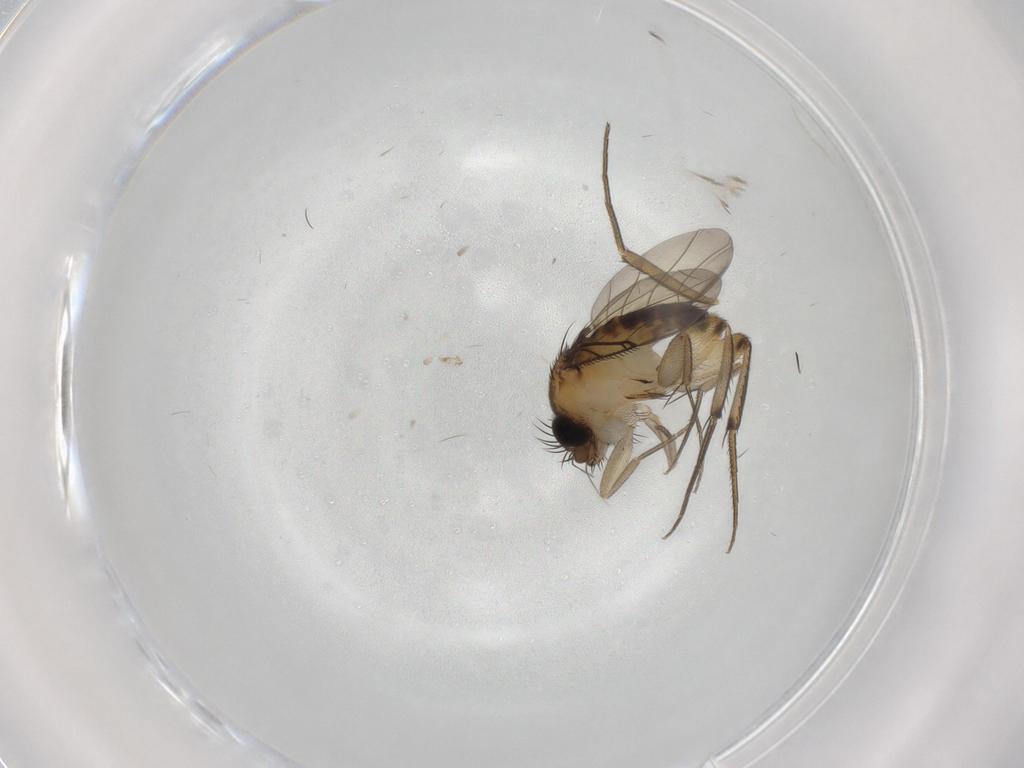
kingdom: Animalia
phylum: Arthropoda
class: Insecta
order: Diptera
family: Phoridae
